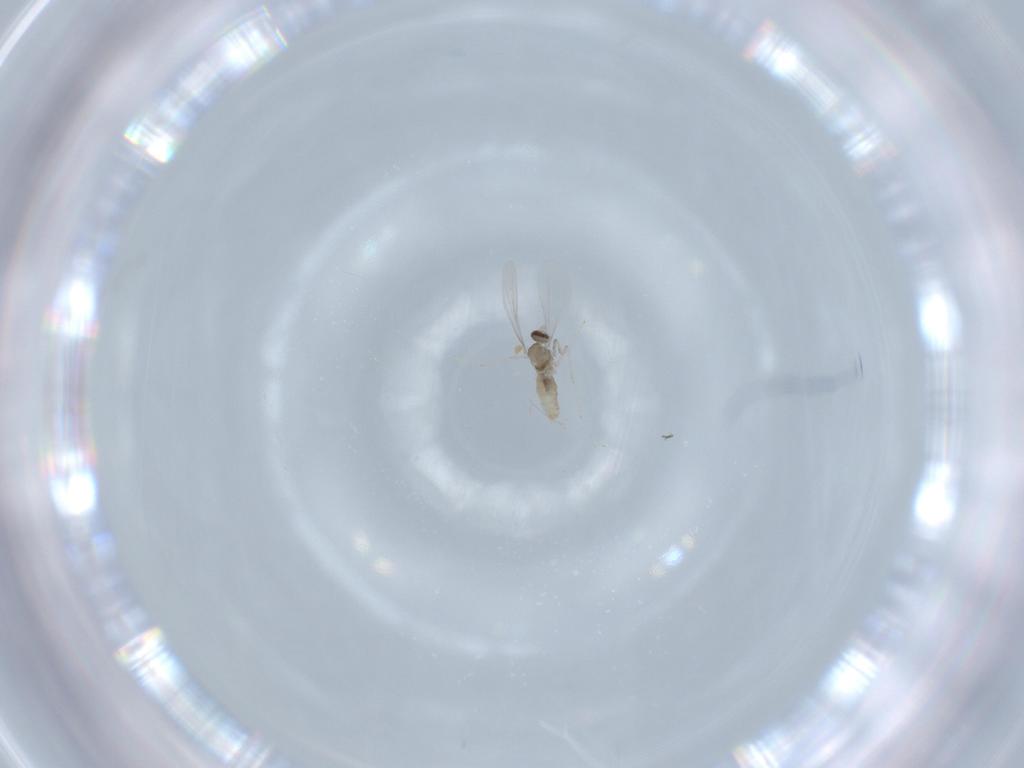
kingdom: Animalia
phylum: Arthropoda
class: Insecta
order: Diptera
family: Cecidomyiidae
